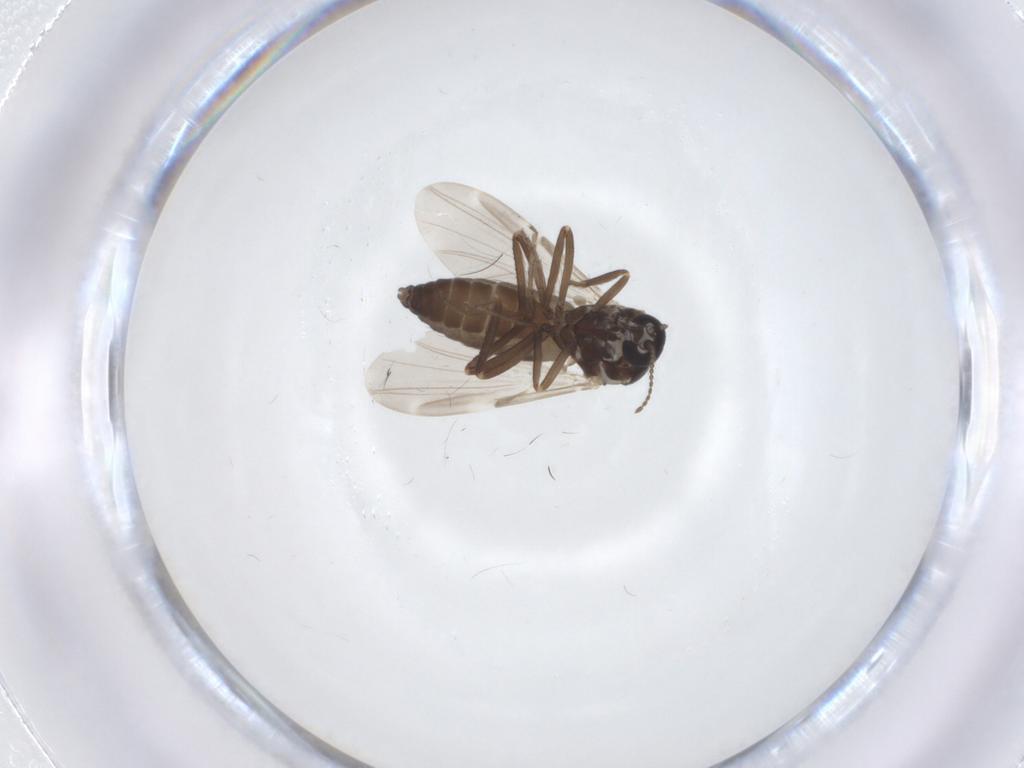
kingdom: Animalia
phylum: Arthropoda
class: Insecta
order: Diptera
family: Ceratopogonidae
